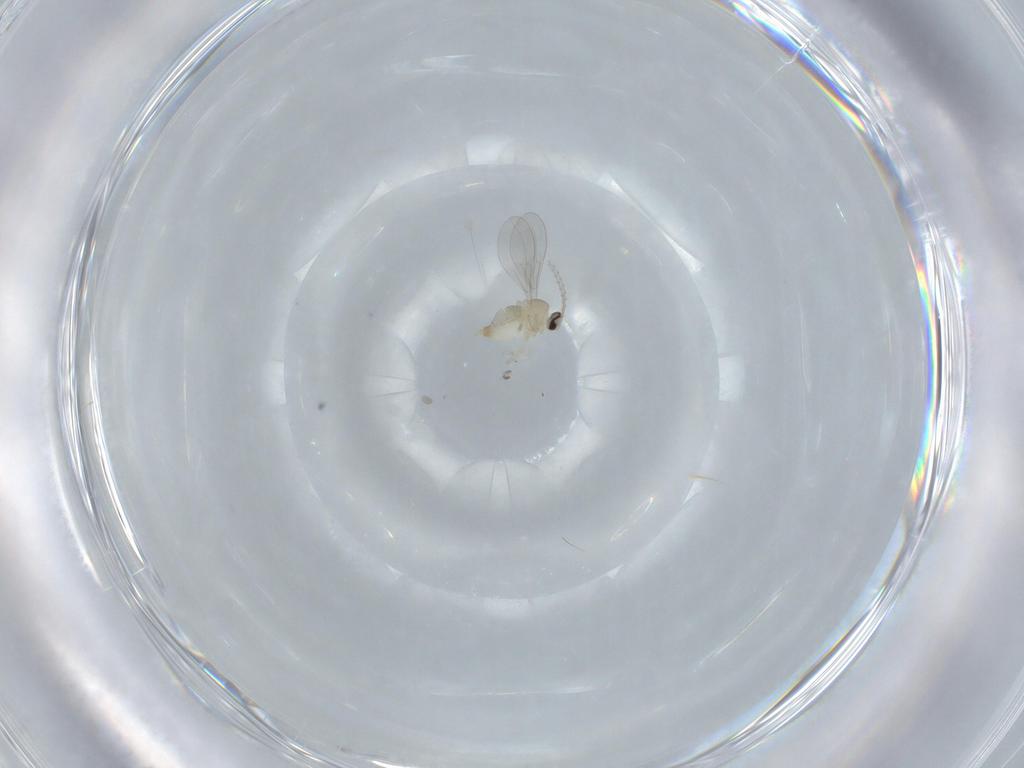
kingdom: Animalia
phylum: Arthropoda
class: Insecta
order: Diptera
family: Cecidomyiidae
